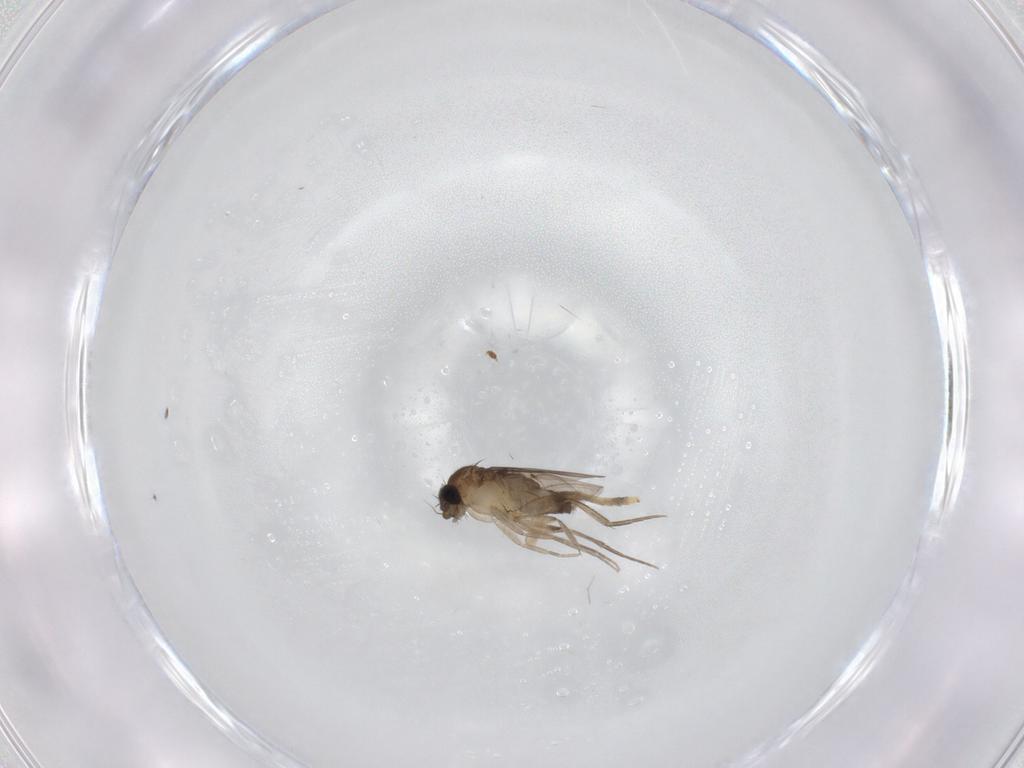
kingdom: Animalia
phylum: Arthropoda
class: Insecta
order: Diptera
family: Phoridae
